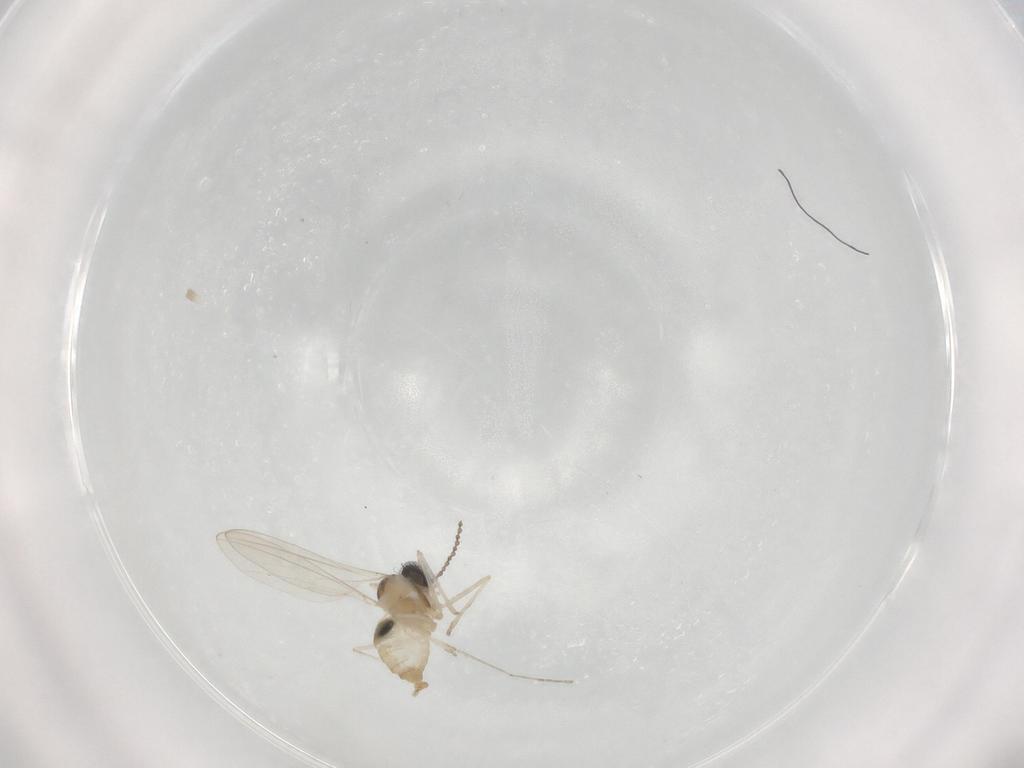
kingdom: Animalia
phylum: Arthropoda
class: Insecta
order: Diptera
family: Cecidomyiidae
